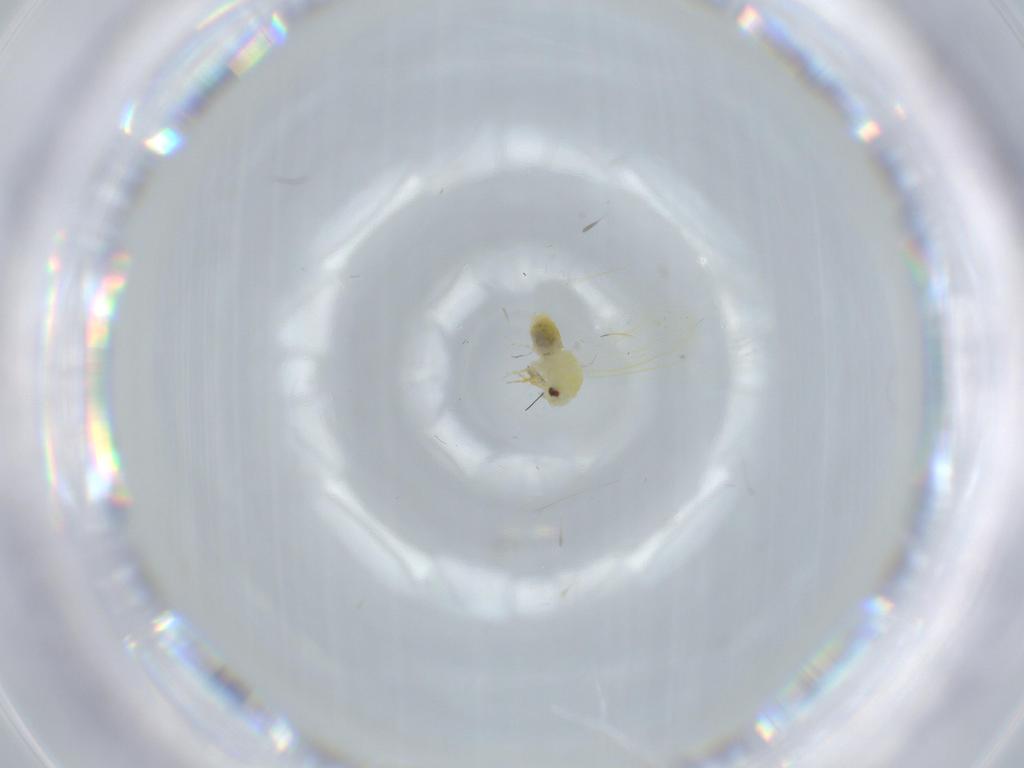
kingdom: Animalia
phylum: Arthropoda
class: Insecta
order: Hemiptera
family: Aleyrodidae
